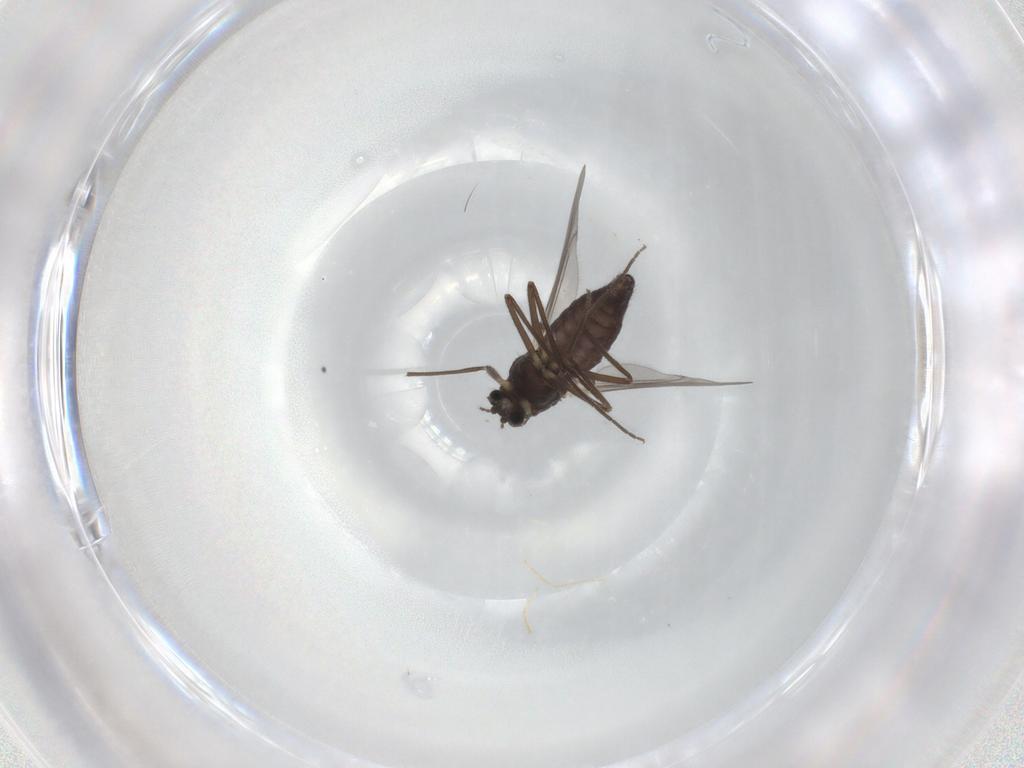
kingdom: Animalia
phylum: Arthropoda
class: Insecta
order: Diptera
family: Chironomidae
